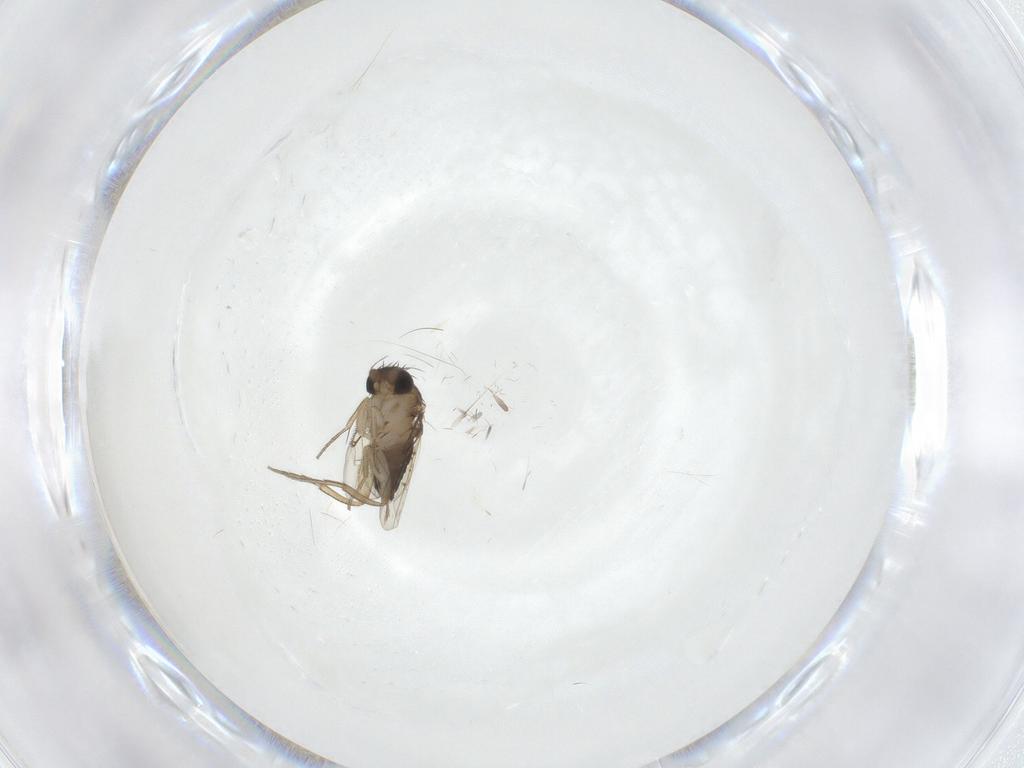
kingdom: Animalia
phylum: Arthropoda
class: Insecta
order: Diptera
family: Phoridae
